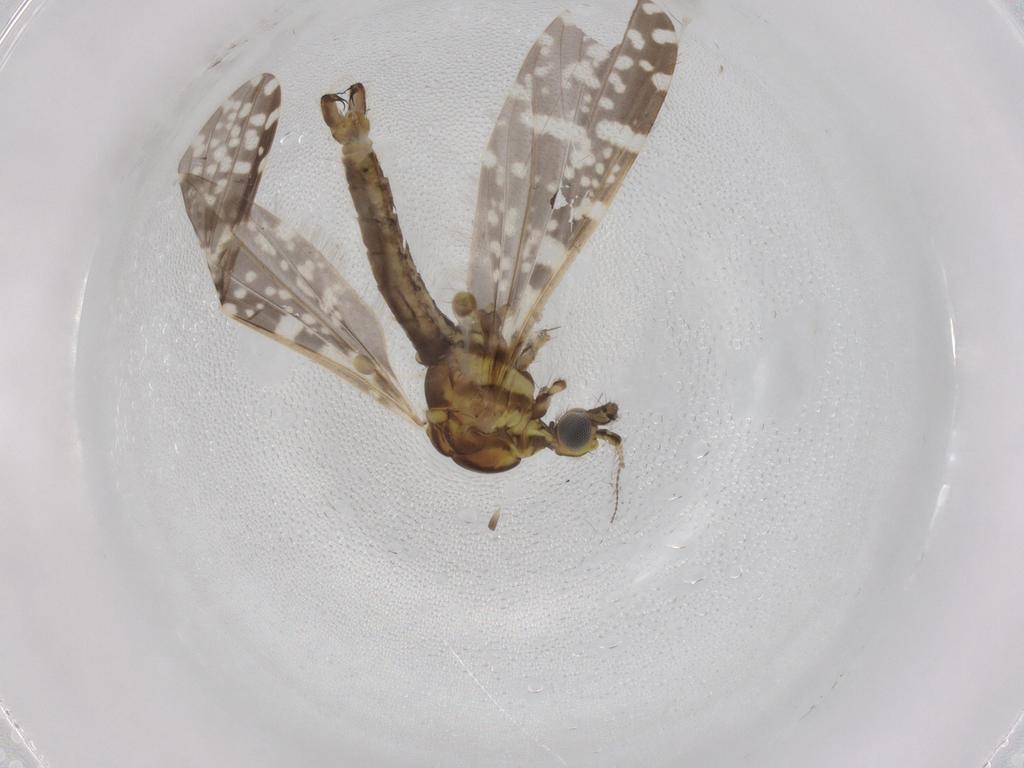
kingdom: Animalia
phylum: Arthropoda
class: Insecta
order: Diptera
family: Chironomidae
